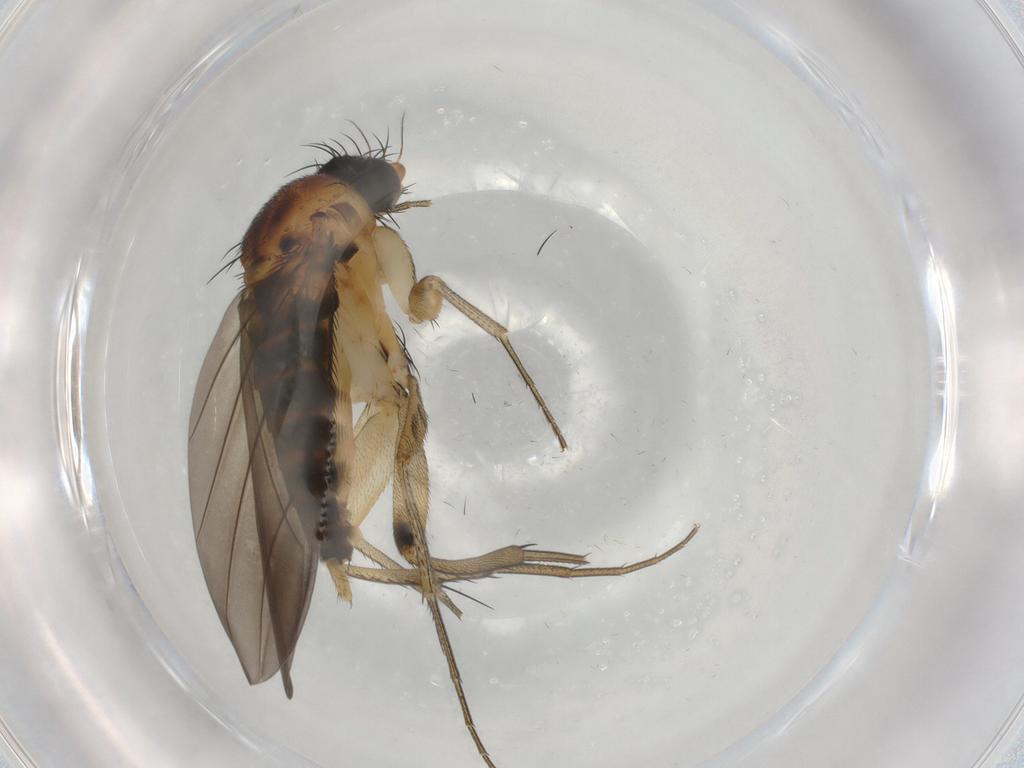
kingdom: Animalia
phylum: Arthropoda
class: Insecta
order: Diptera
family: Phoridae
